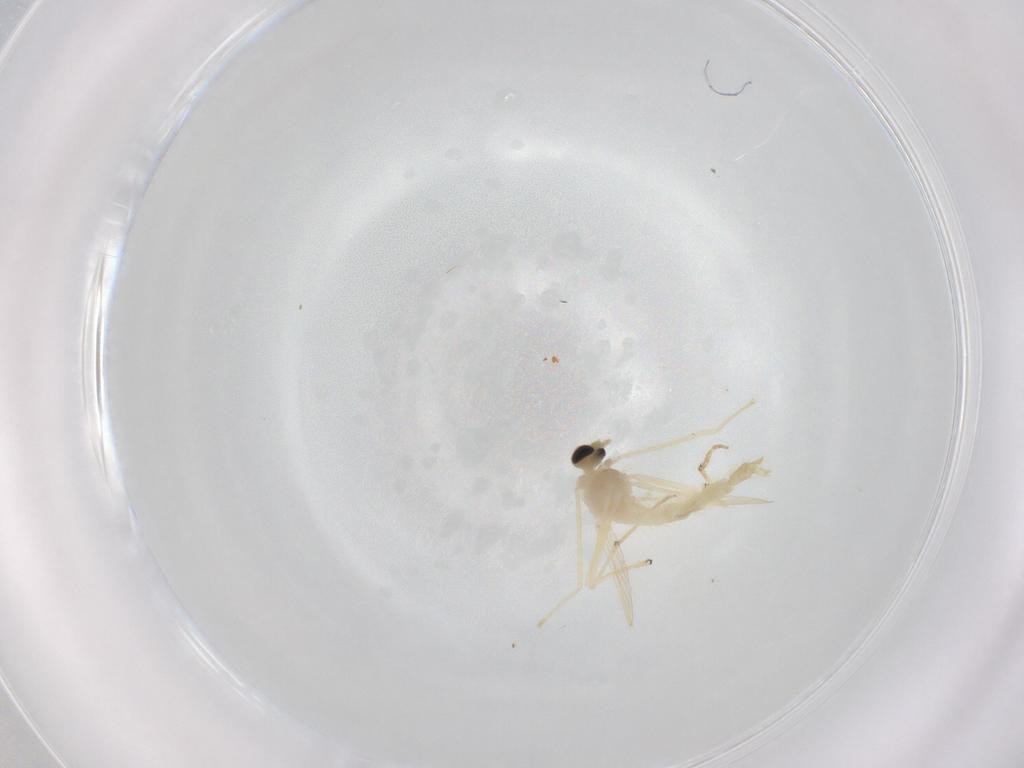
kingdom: Animalia
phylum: Arthropoda
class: Insecta
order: Diptera
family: Chironomidae
